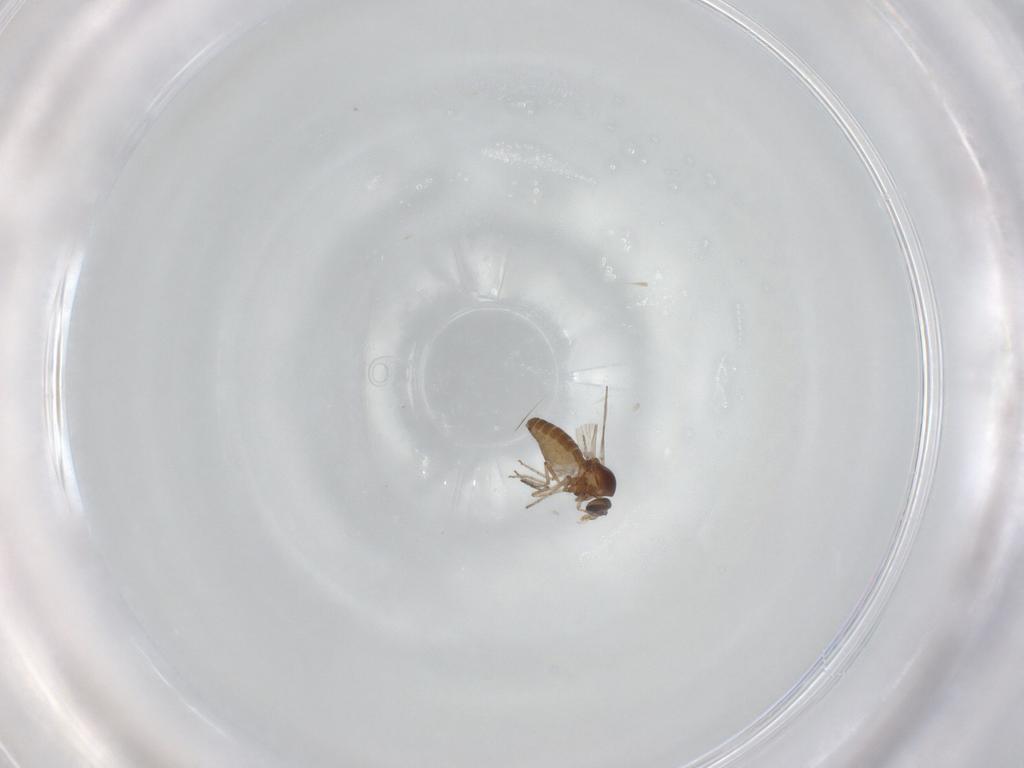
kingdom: Animalia
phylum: Arthropoda
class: Insecta
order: Diptera
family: Ceratopogonidae
